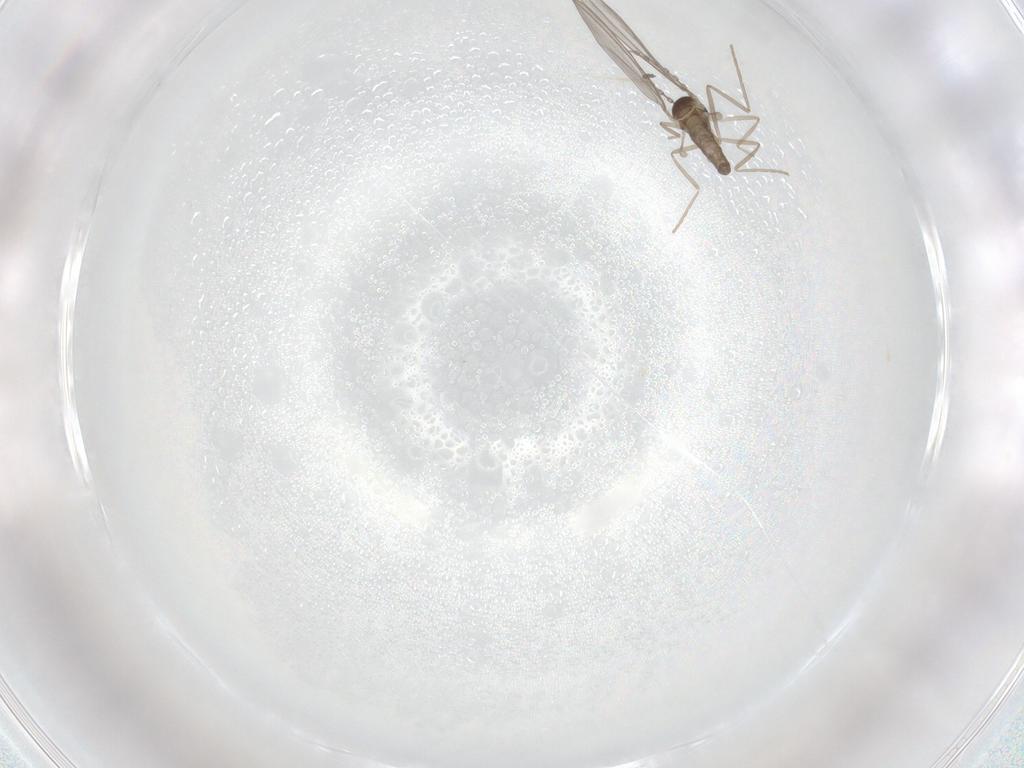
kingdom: Animalia
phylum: Arthropoda
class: Insecta
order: Diptera
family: Cecidomyiidae
